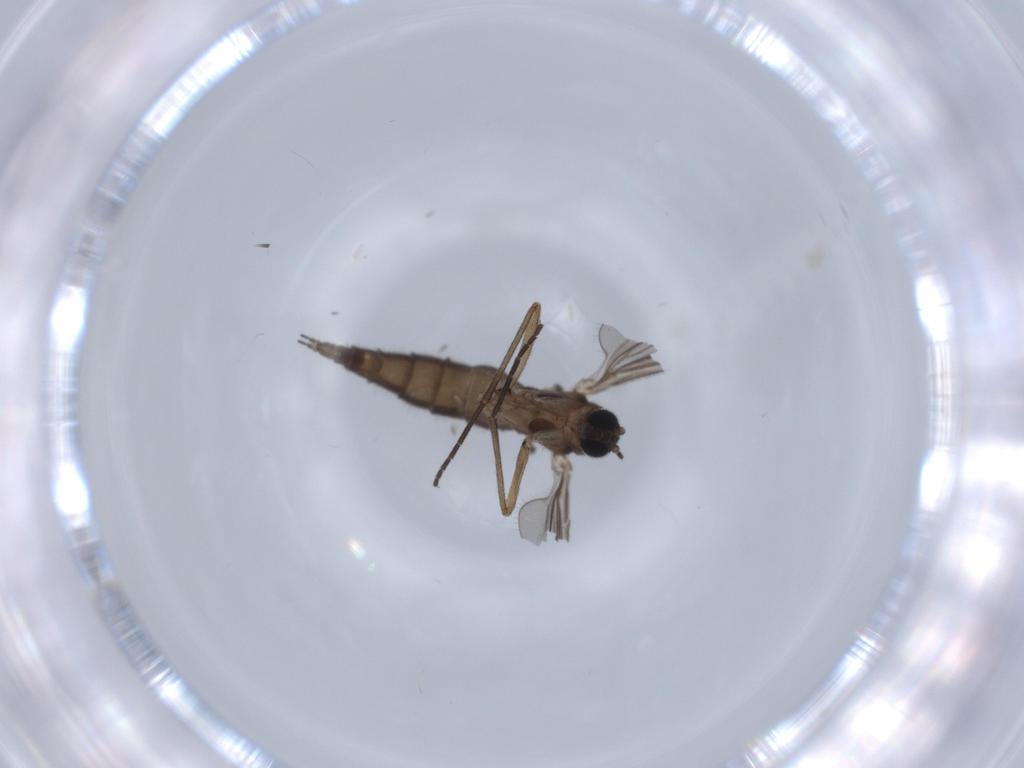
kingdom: Animalia
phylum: Arthropoda
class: Insecta
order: Diptera
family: Sciaridae
